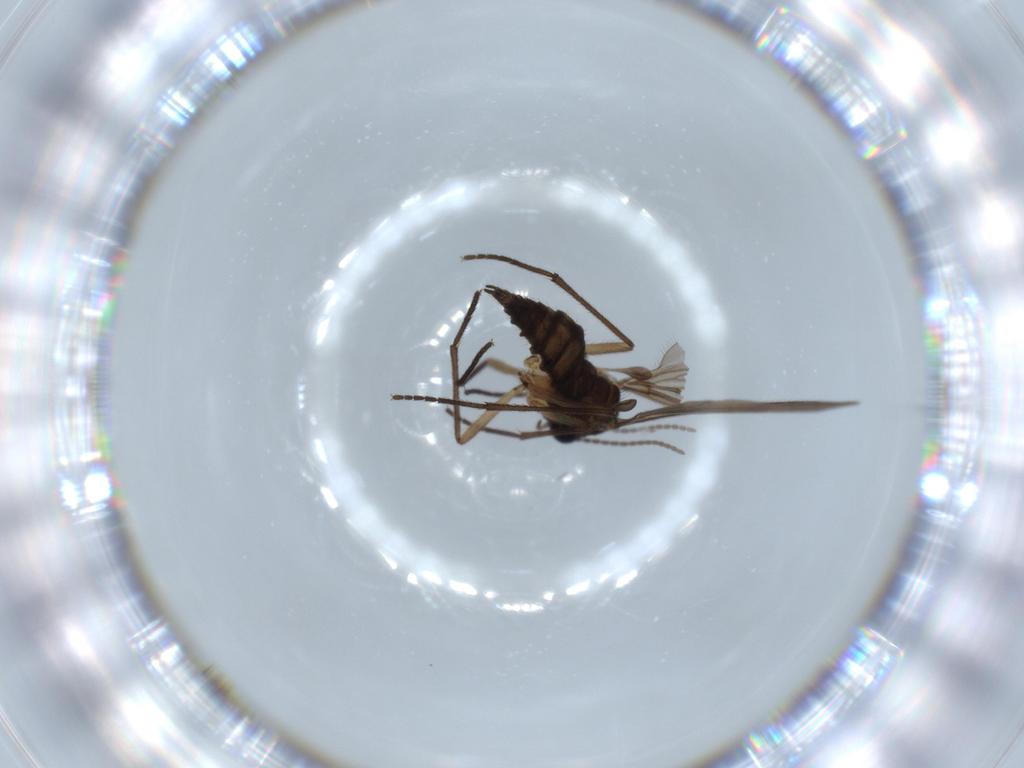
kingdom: Animalia
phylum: Arthropoda
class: Insecta
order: Diptera
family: Sciaridae
